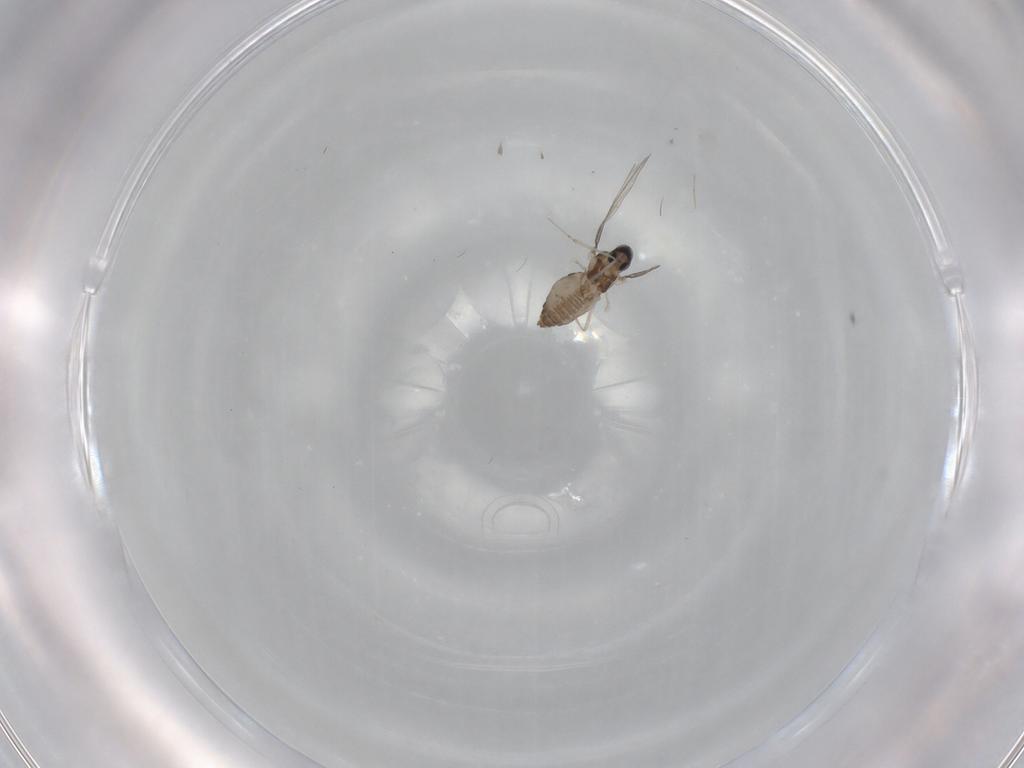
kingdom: Animalia
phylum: Arthropoda
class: Insecta
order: Diptera
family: Cecidomyiidae
